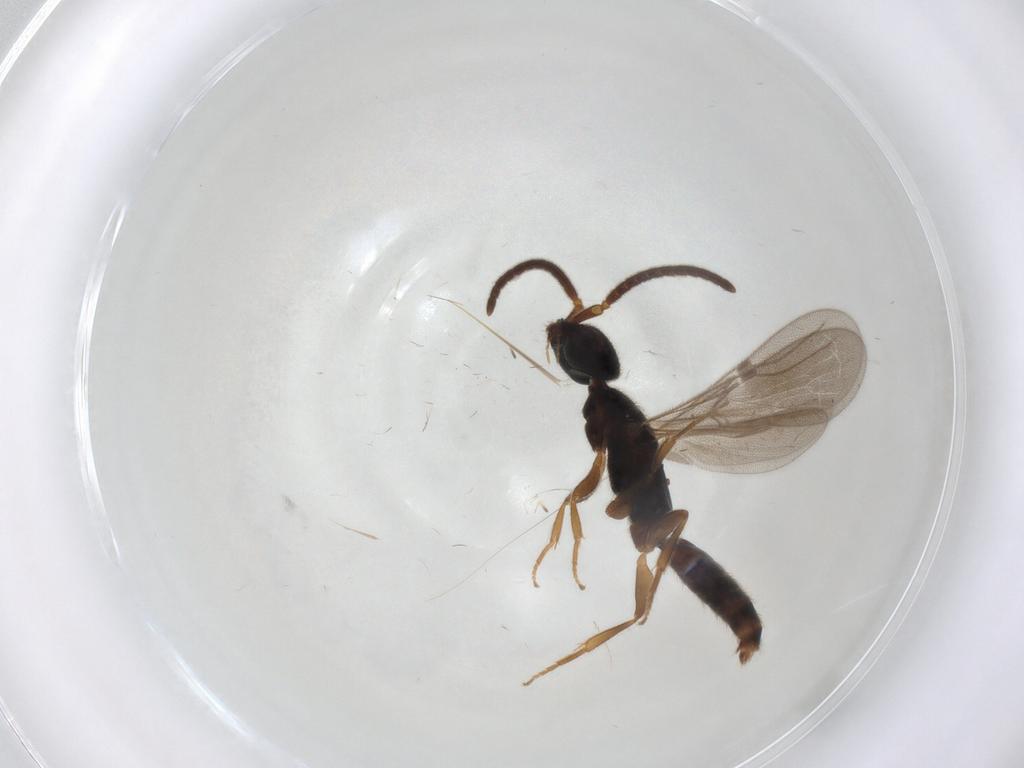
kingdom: Animalia
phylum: Arthropoda
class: Insecta
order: Hymenoptera
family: Bethylidae
